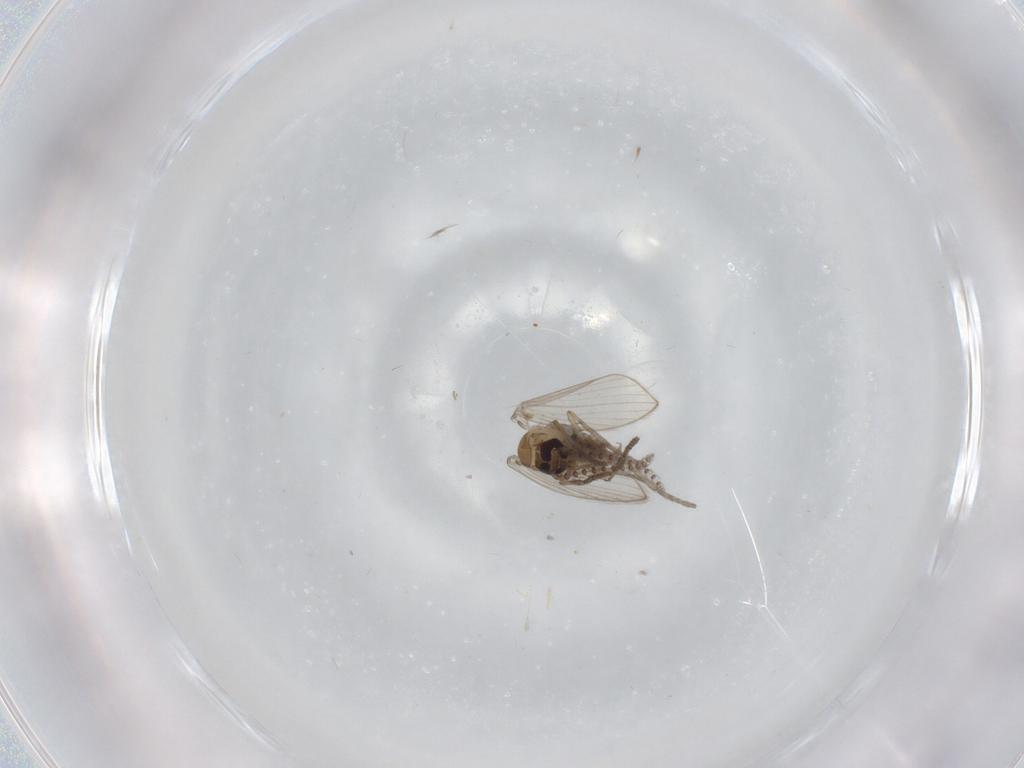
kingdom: Animalia
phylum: Arthropoda
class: Insecta
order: Diptera
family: Psychodidae
